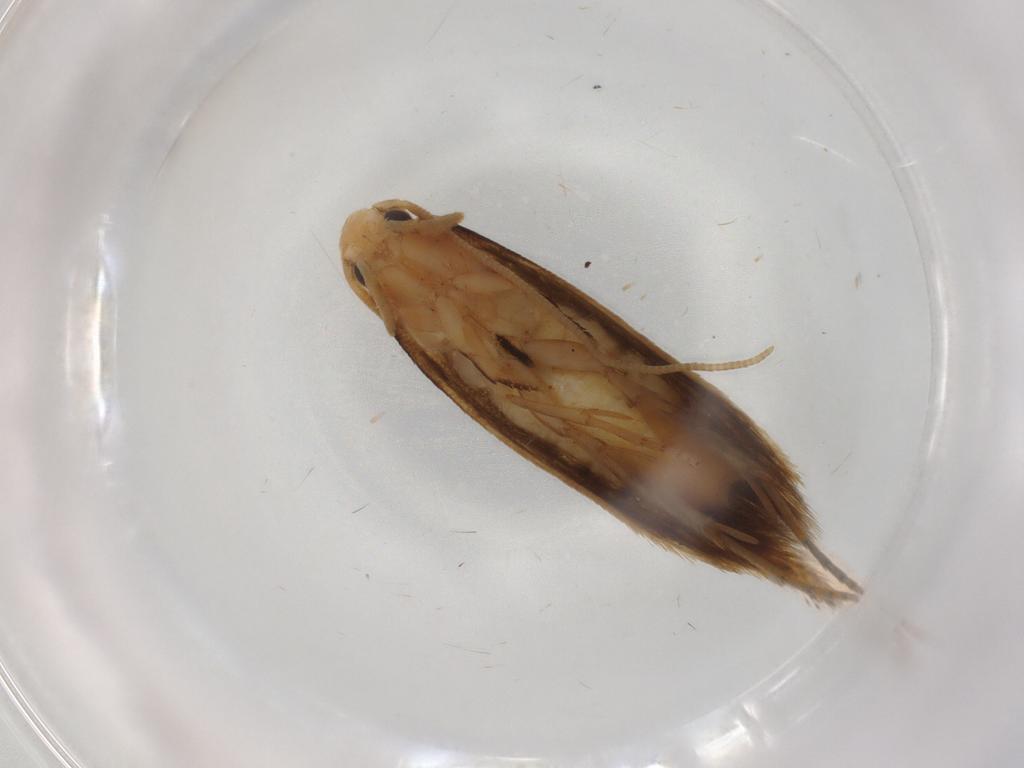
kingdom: Animalia
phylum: Arthropoda
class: Insecta
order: Lepidoptera
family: Tineidae
